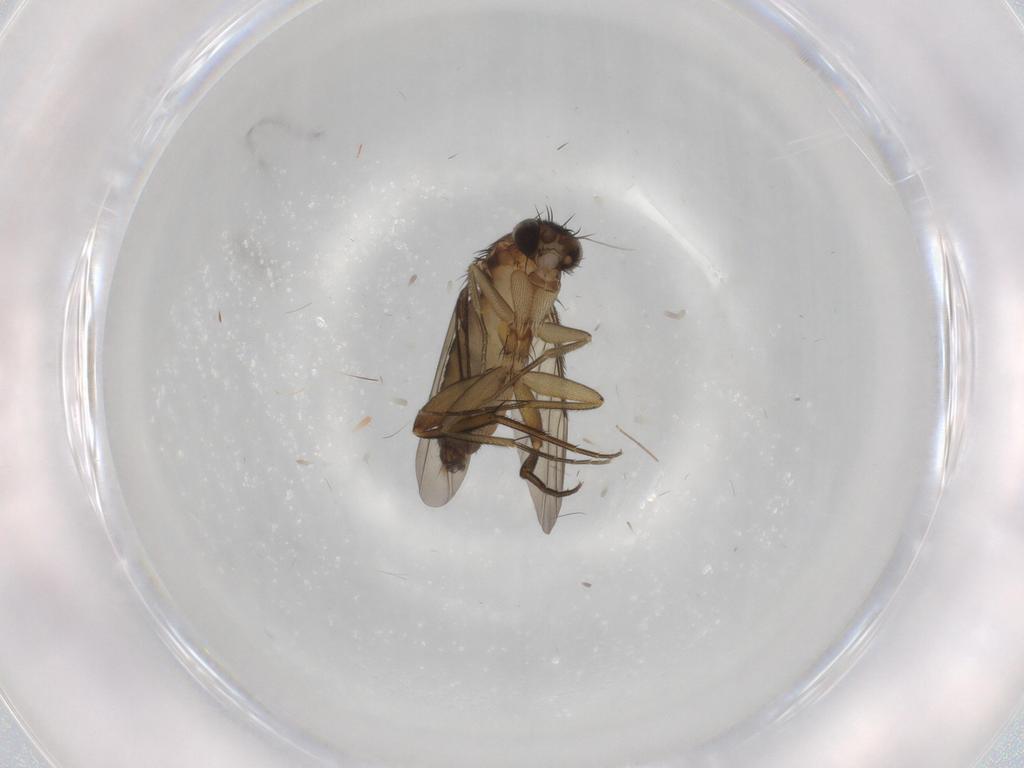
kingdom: Animalia
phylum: Arthropoda
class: Insecta
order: Diptera
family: Phoridae
